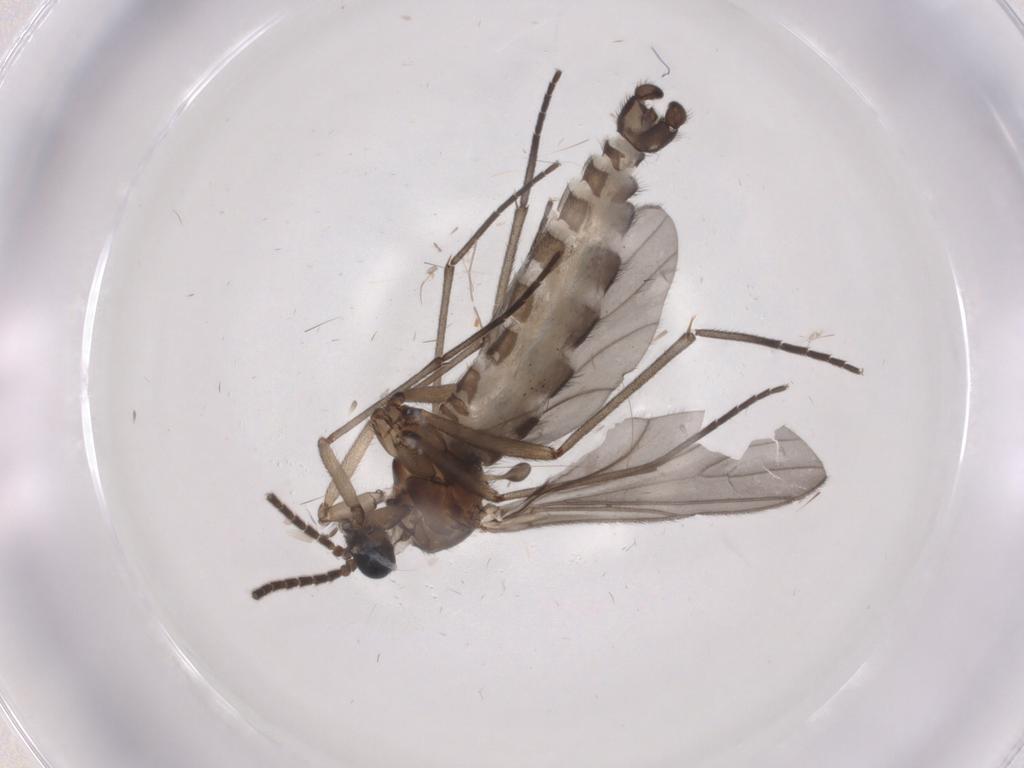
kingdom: Animalia
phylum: Arthropoda
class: Insecta
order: Diptera
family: Sciaridae
